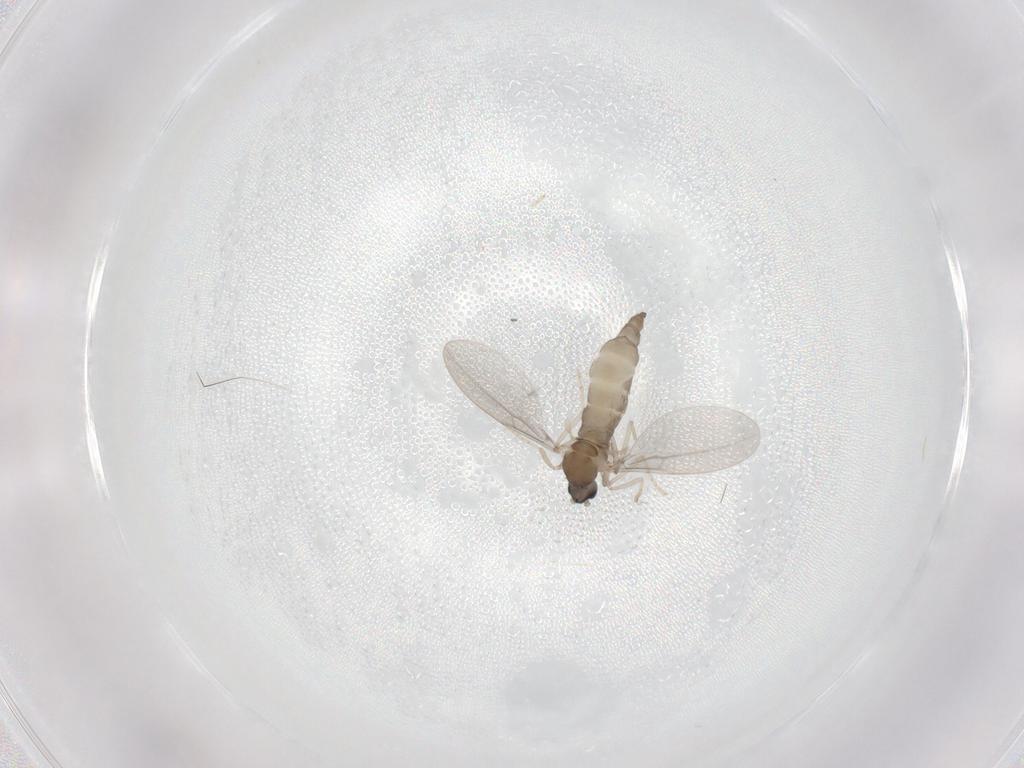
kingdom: Animalia
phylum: Arthropoda
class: Insecta
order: Diptera
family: Cecidomyiidae
